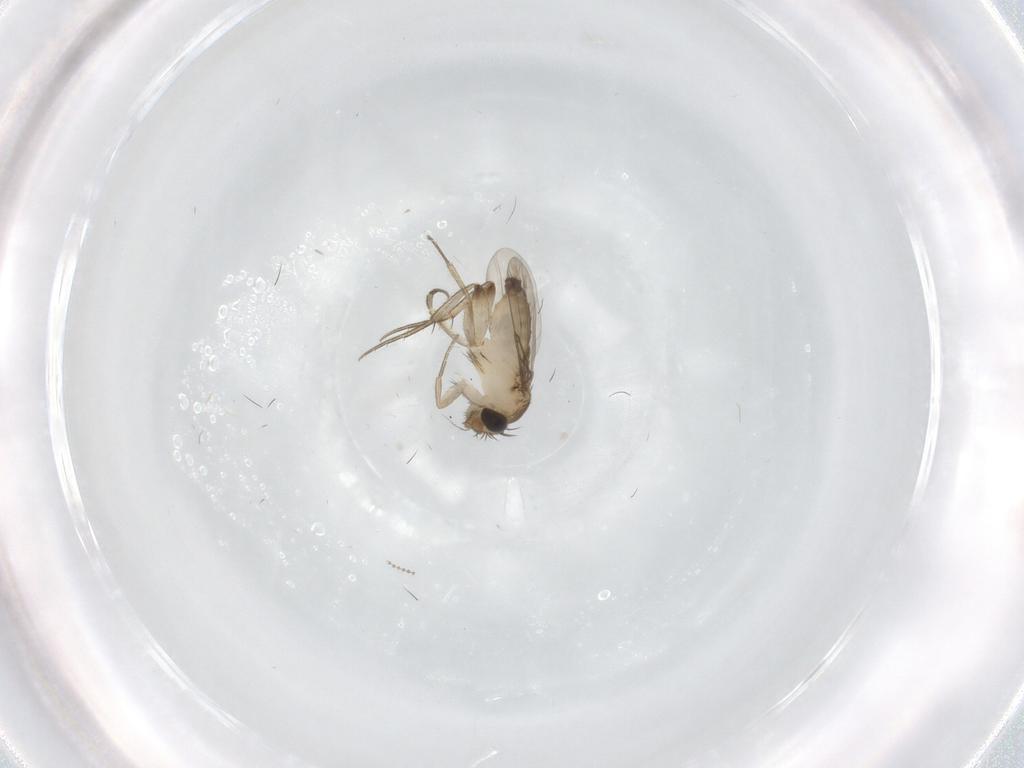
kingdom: Animalia
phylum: Arthropoda
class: Insecta
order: Diptera
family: Phoridae
